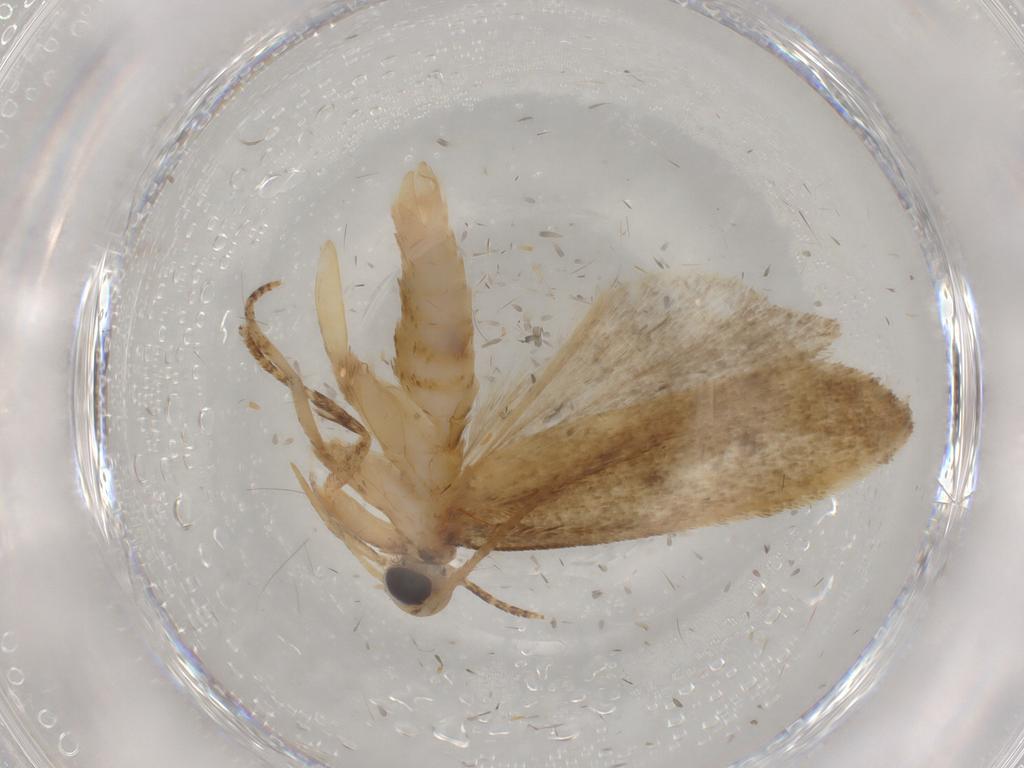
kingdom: Animalia
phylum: Arthropoda
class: Insecta
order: Lepidoptera
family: Autostichidae
